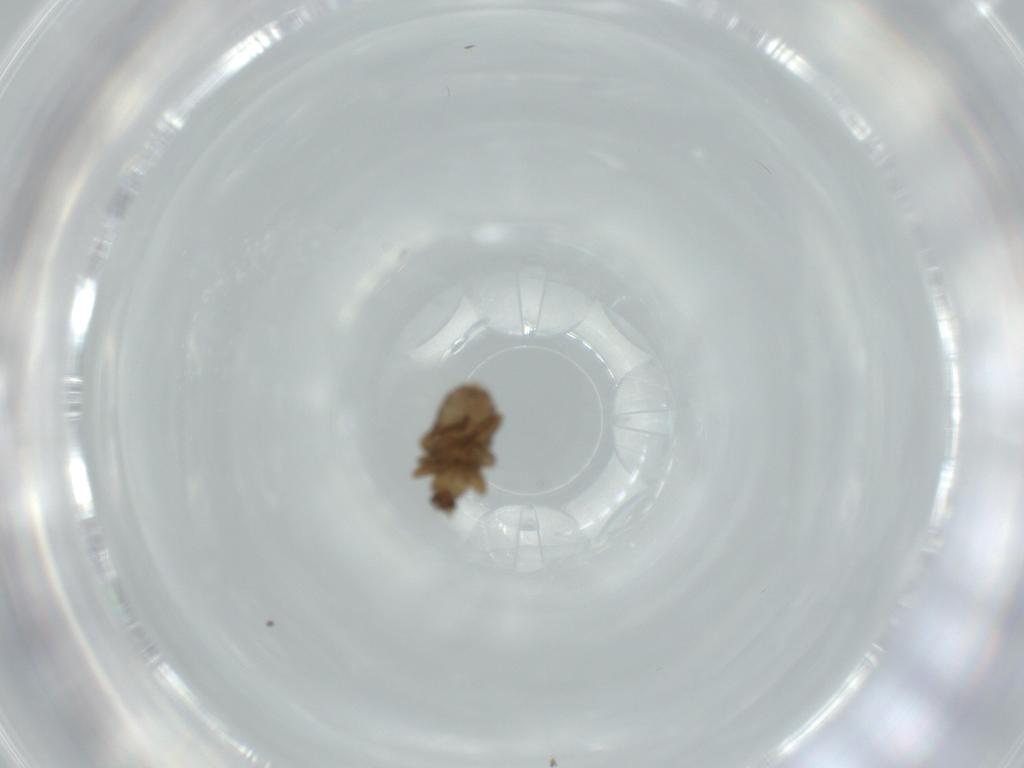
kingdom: Animalia
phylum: Arthropoda
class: Insecta
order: Diptera
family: Phoridae
